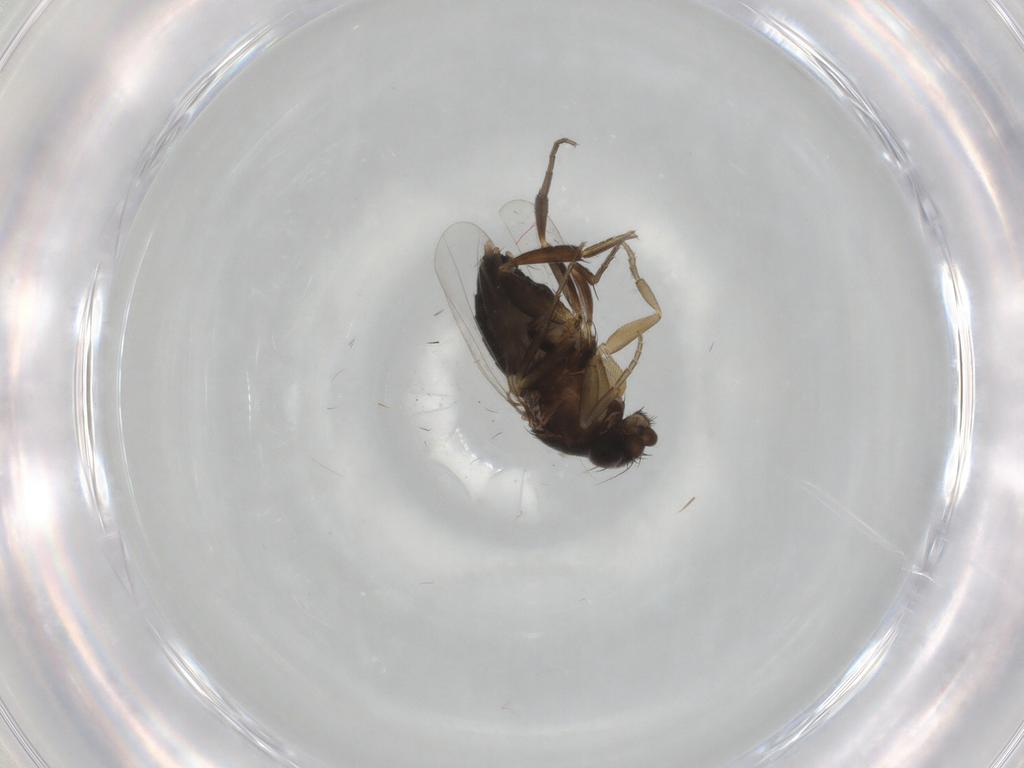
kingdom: Animalia
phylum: Arthropoda
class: Insecta
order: Diptera
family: Phoridae
